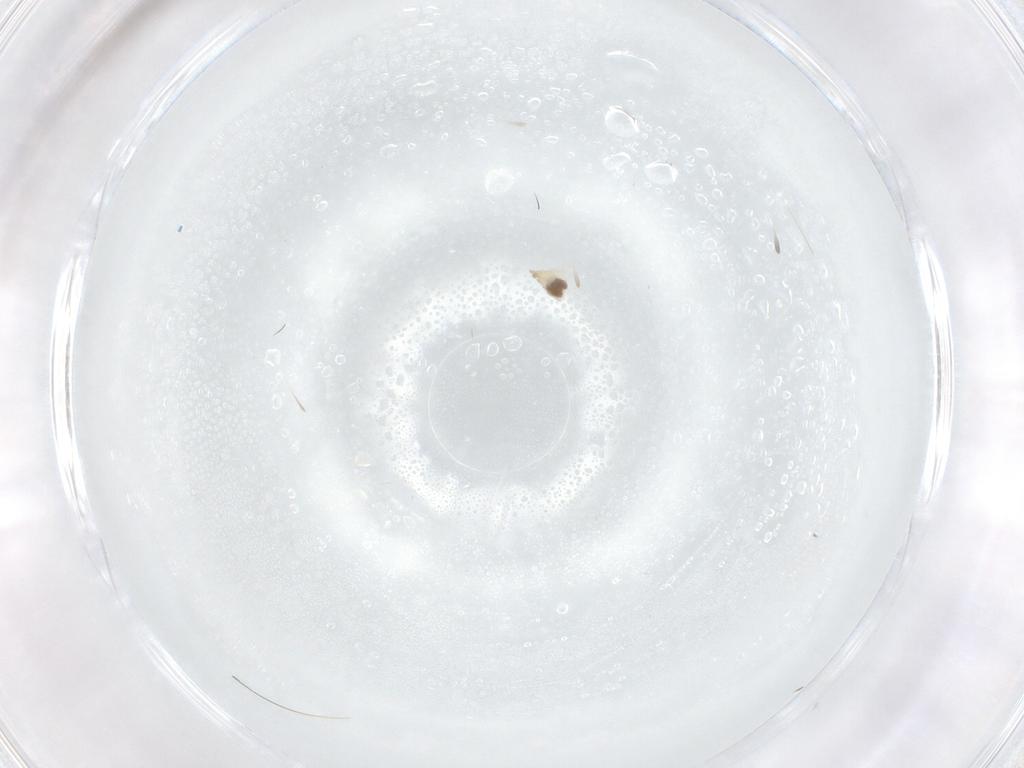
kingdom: Animalia
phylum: Arthropoda
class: Insecta
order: Diptera
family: Cecidomyiidae
